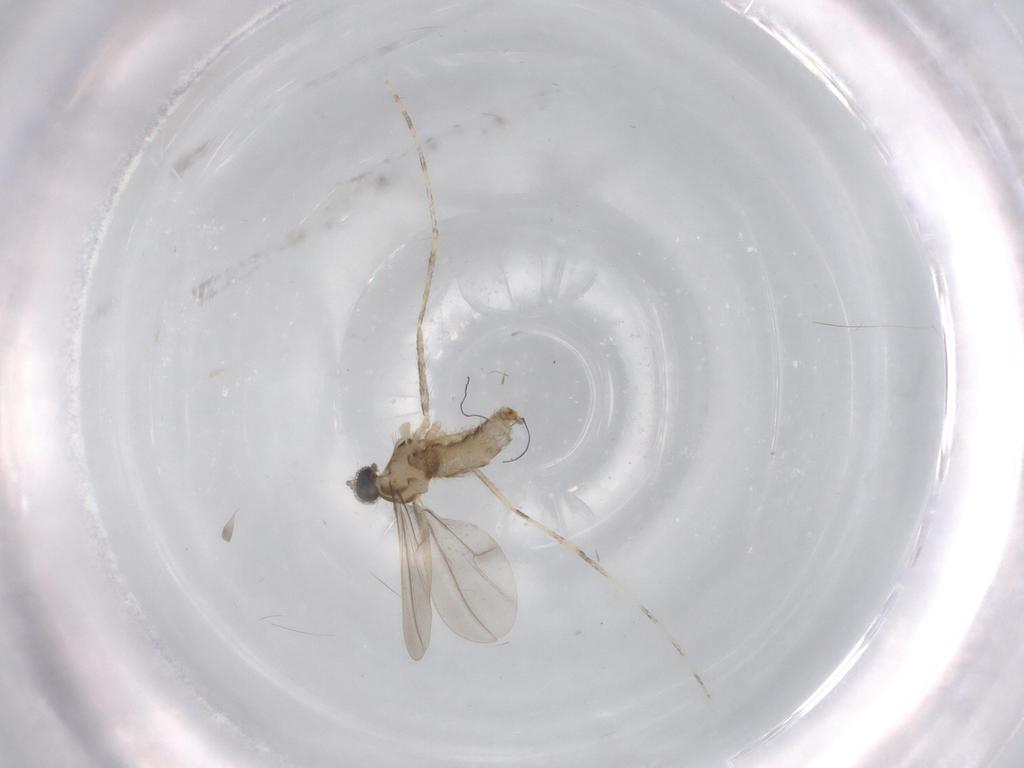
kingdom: Animalia
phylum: Arthropoda
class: Insecta
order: Diptera
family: Cecidomyiidae
